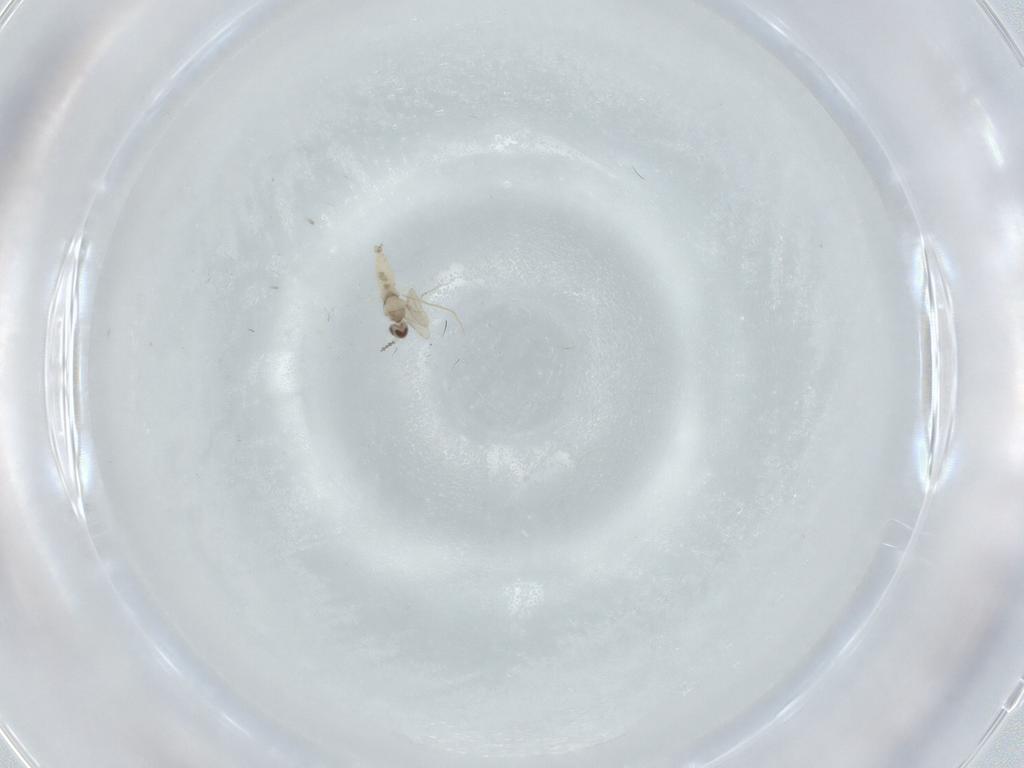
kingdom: Animalia
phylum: Arthropoda
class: Insecta
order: Diptera
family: Cecidomyiidae
